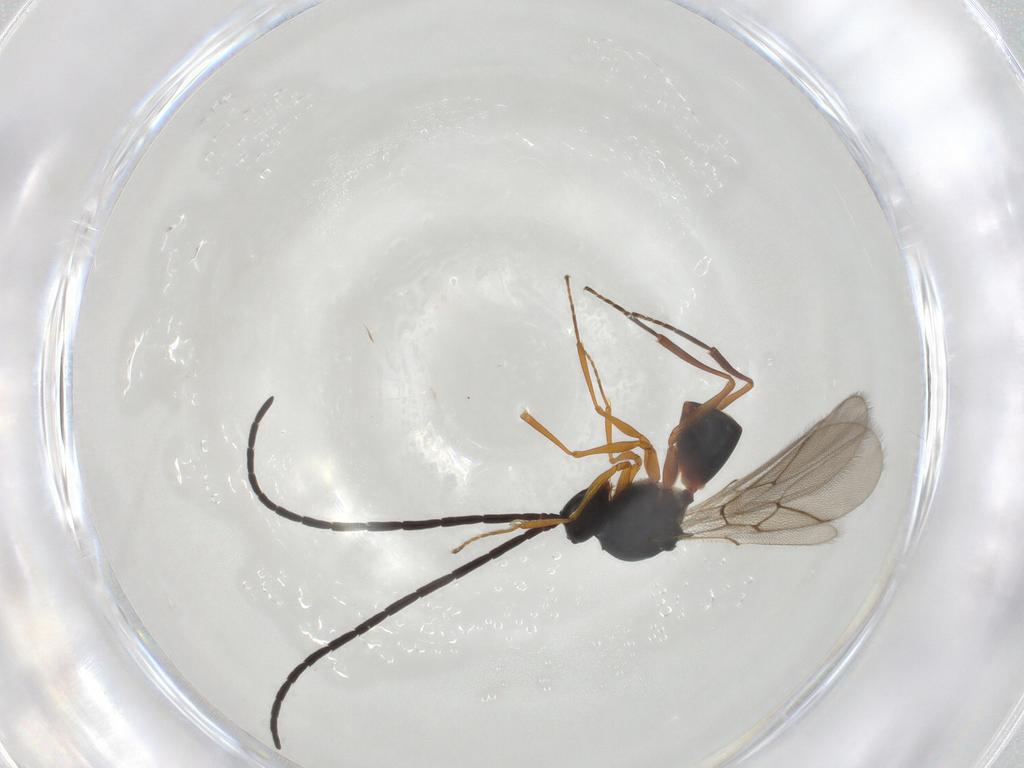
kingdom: Animalia
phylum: Arthropoda
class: Insecta
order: Hymenoptera
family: Figitidae
